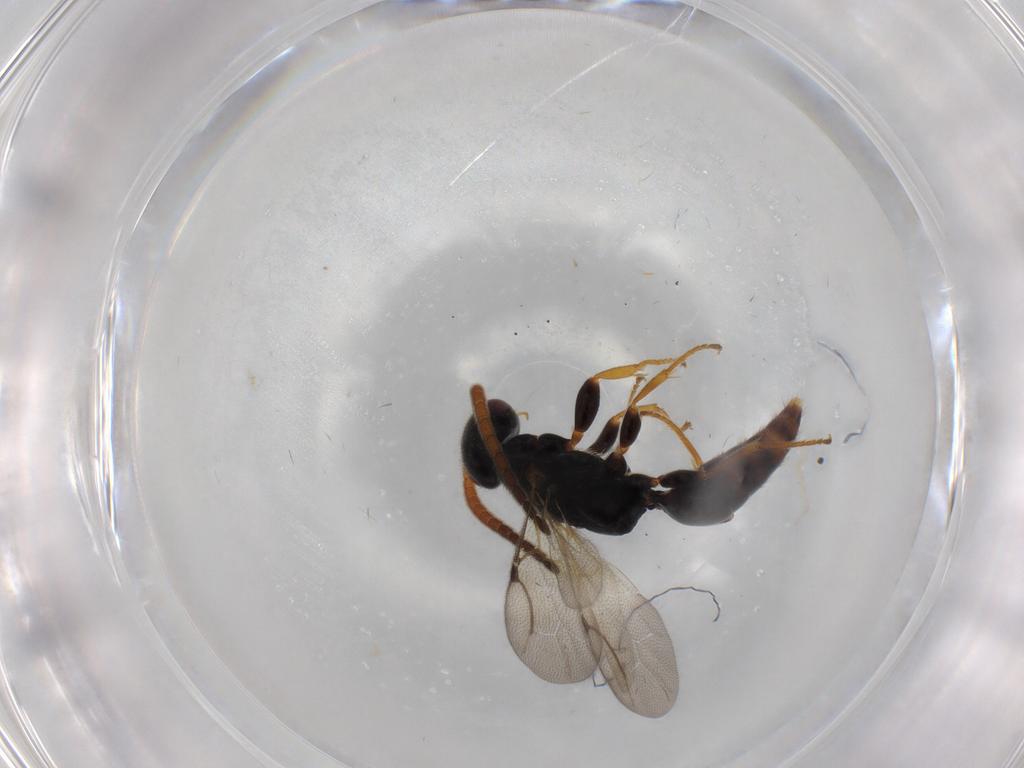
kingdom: Animalia
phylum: Arthropoda
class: Insecta
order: Hymenoptera
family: Bethylidae
